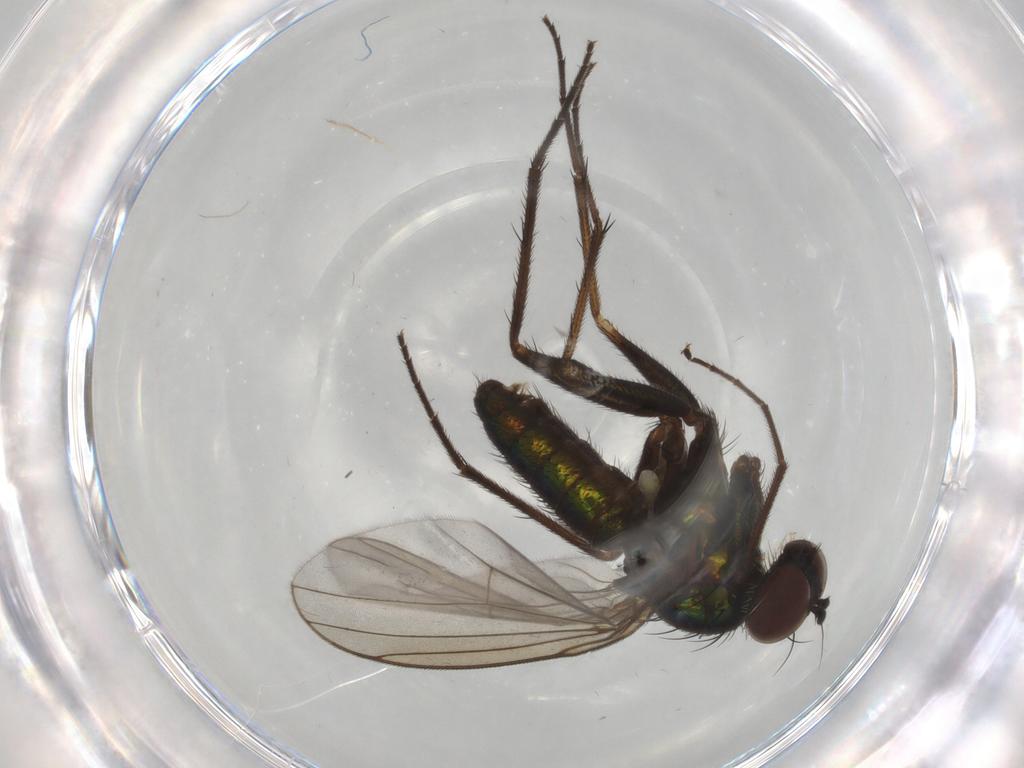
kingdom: Animalia
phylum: Arthropoda
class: Insecta
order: Diptera
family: Dolichopodidae
